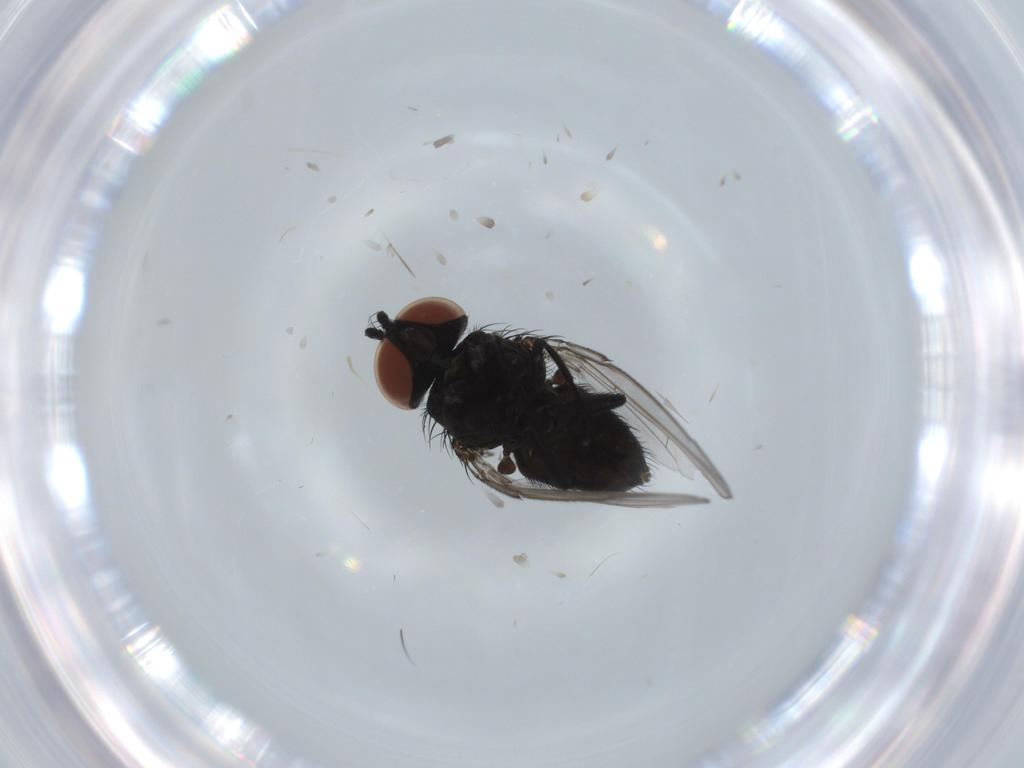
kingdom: Animalia
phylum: Arthropoda
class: Insecta
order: Diptera
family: Milichiidae
